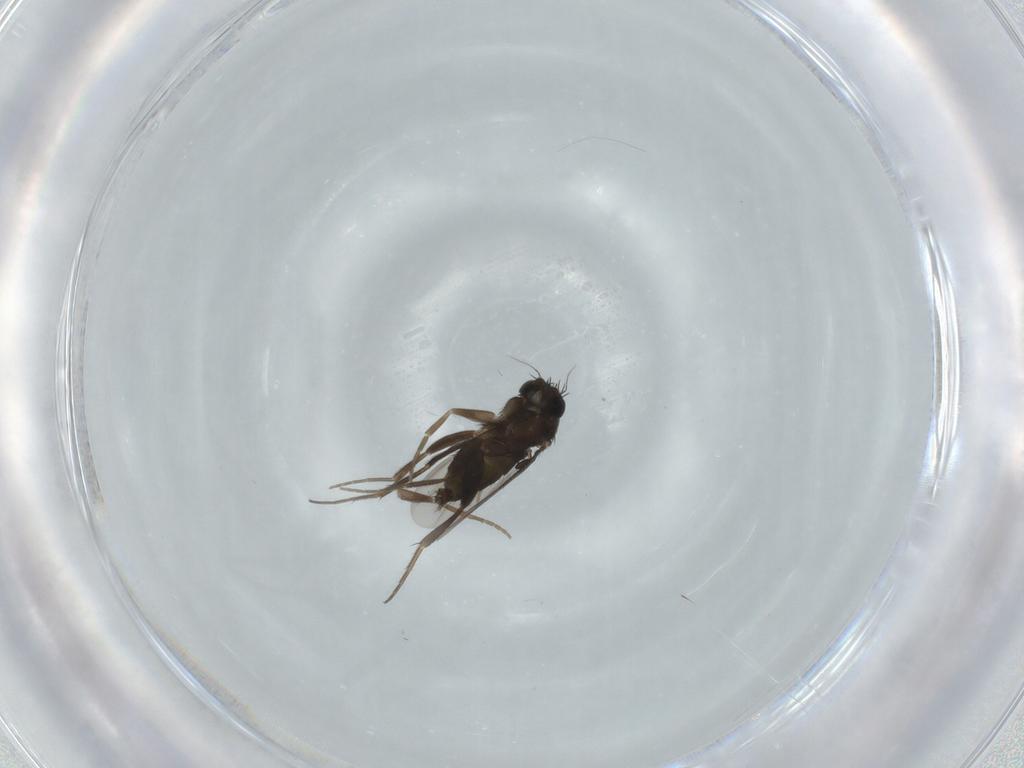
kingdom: Animalia
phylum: Arthropoda
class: Insecta
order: Diptera
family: Phoridae
